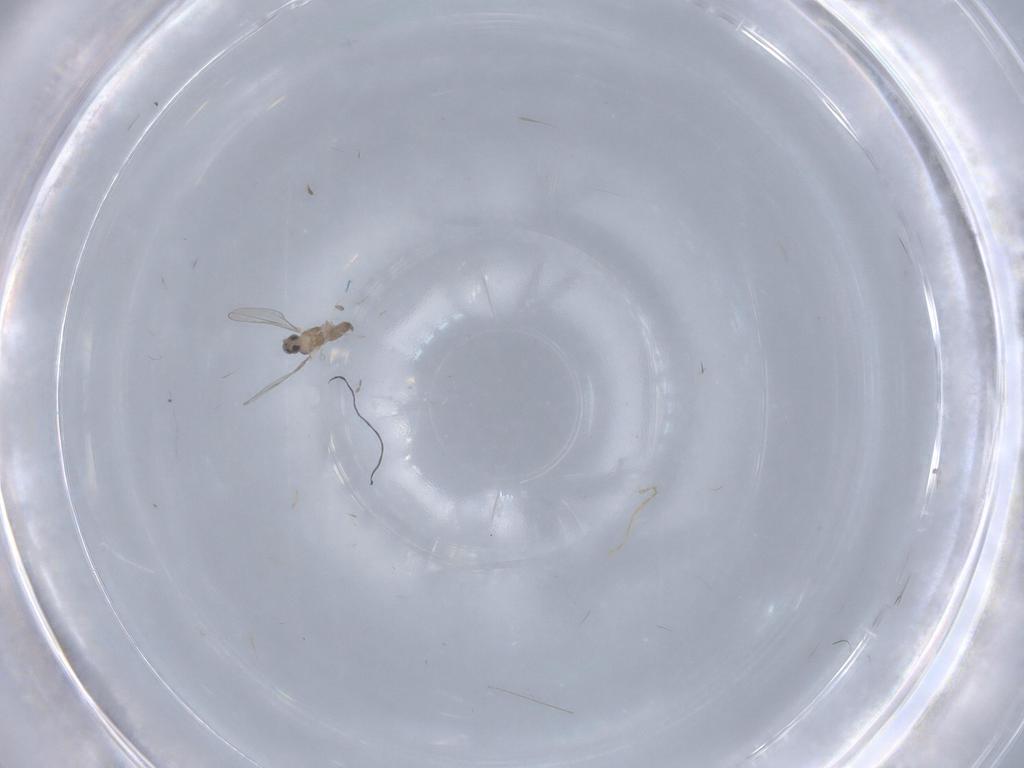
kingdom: Animalia
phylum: Arthropoda
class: Insecta
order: Diptera
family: Cecidomyiidae
